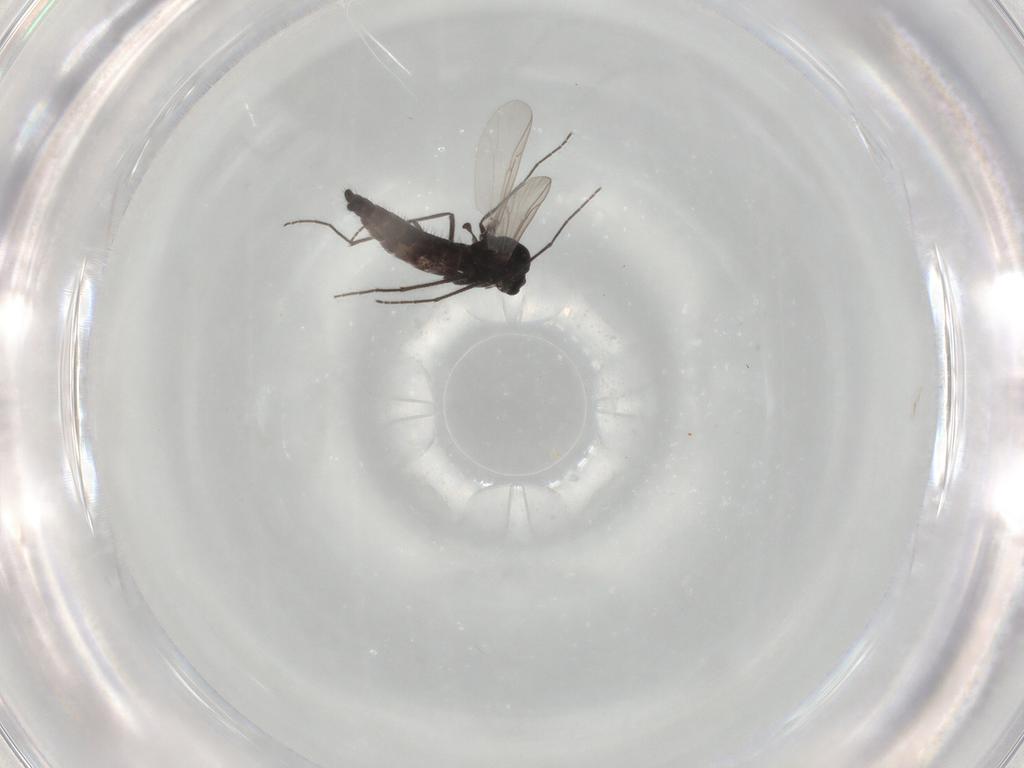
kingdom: Animalia
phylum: Arthropoda
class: Insecta
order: Diptera
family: Chironomidae
